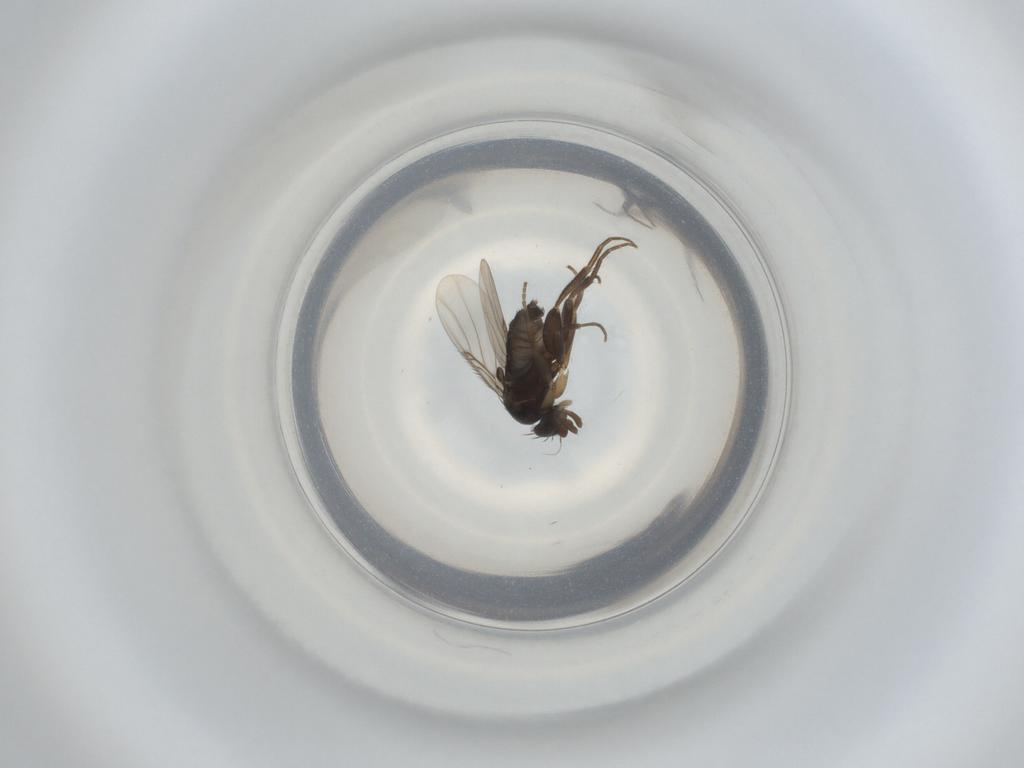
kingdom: Animalia
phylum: Arthropoda
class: Insecta
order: Diptera
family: Phoridae
